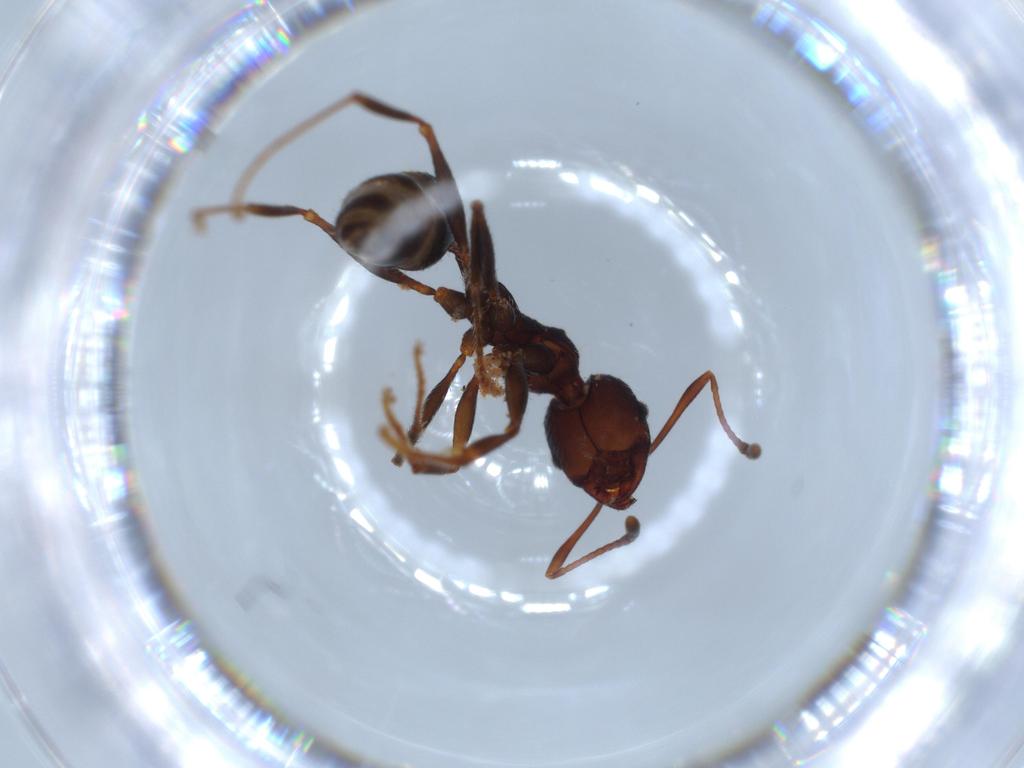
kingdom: Animalia
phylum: Arthropoda
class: Insecta
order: Hymenoptera
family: Formicidae
